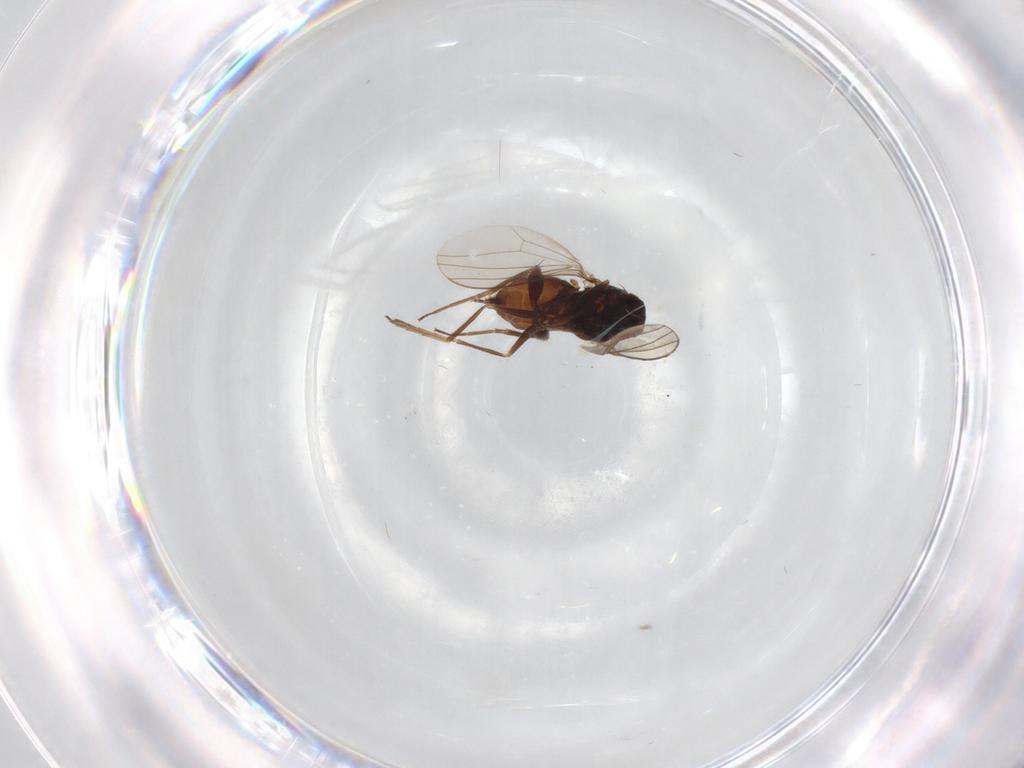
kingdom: Animalia
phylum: Arthropoda
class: Insecta
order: Diptera
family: Dolichopodidae
